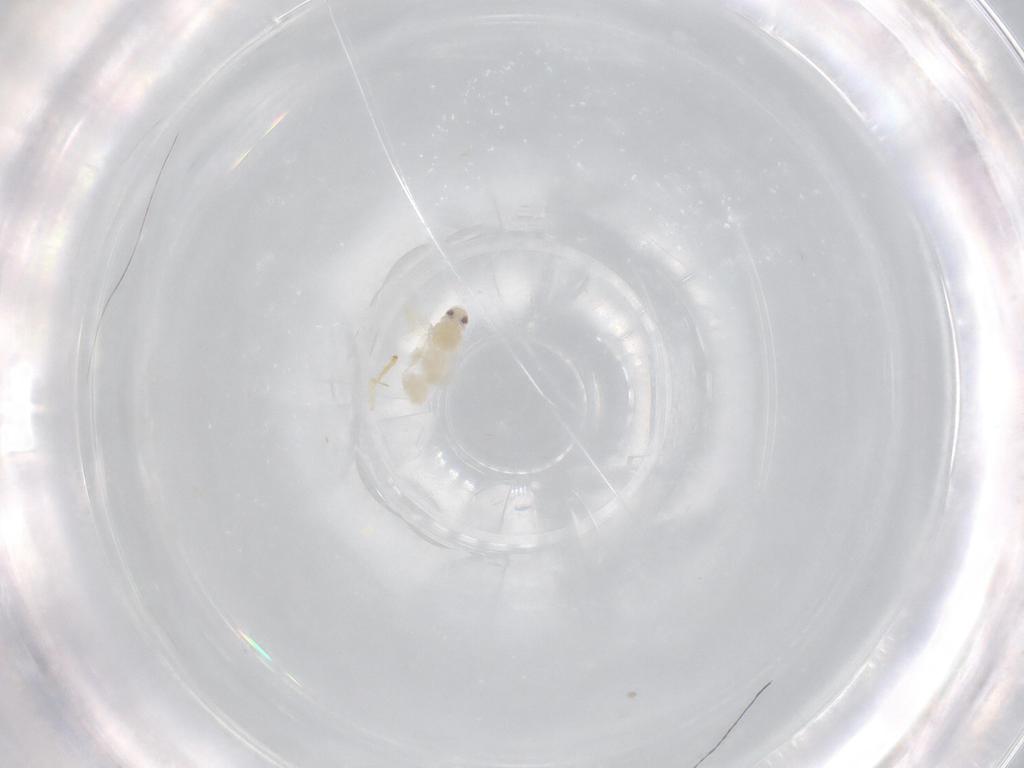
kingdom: Animalia
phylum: Arthropoda
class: Insecta
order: Hemiptera
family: Aleyrodidae
